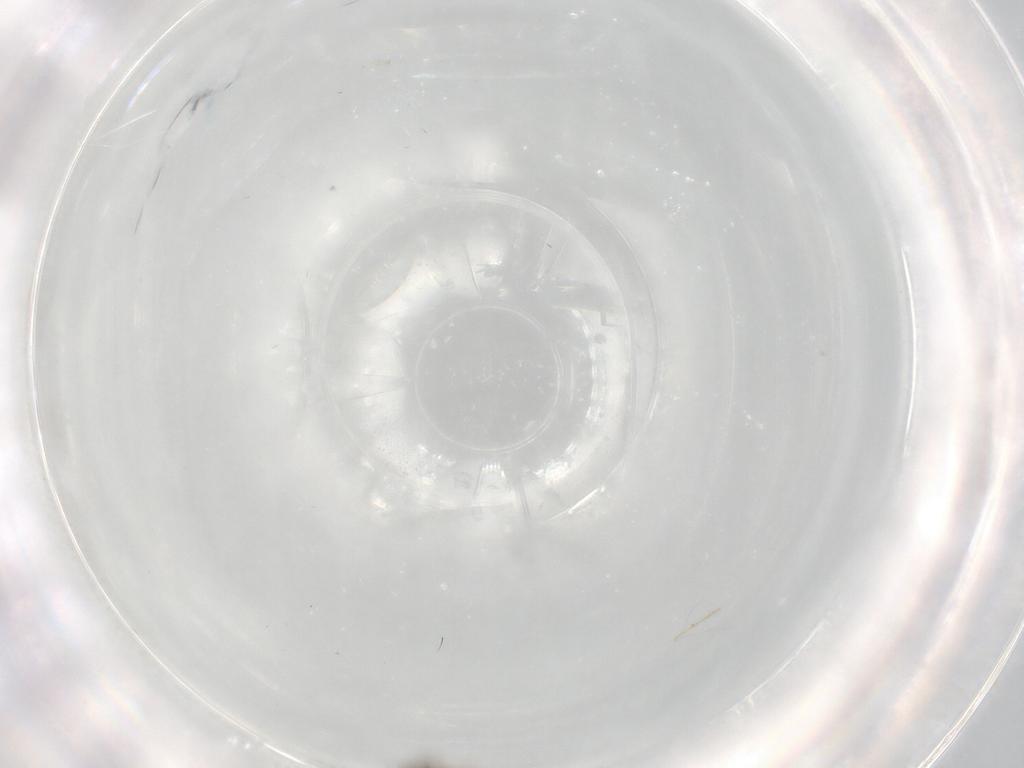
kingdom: Animalia
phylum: Arthropoda
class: Insecta
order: Diptera
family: Cecidomyiidae
